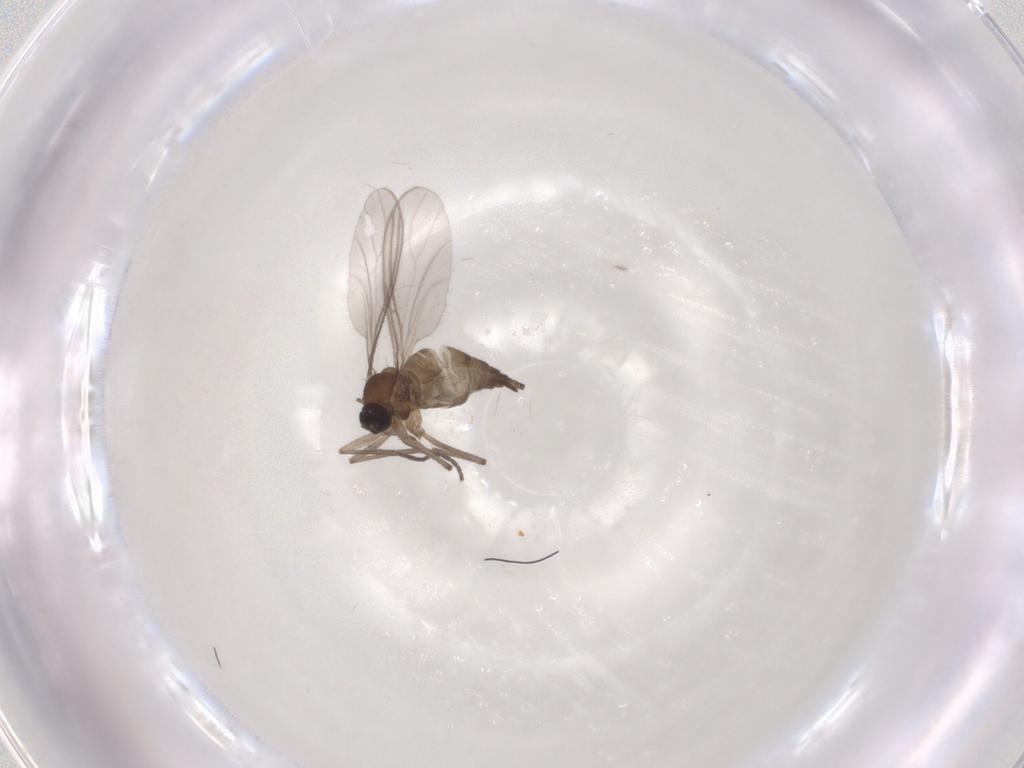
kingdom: Animalia
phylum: Arthropoda
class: Insecta
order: Diptera
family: Sciaridae
